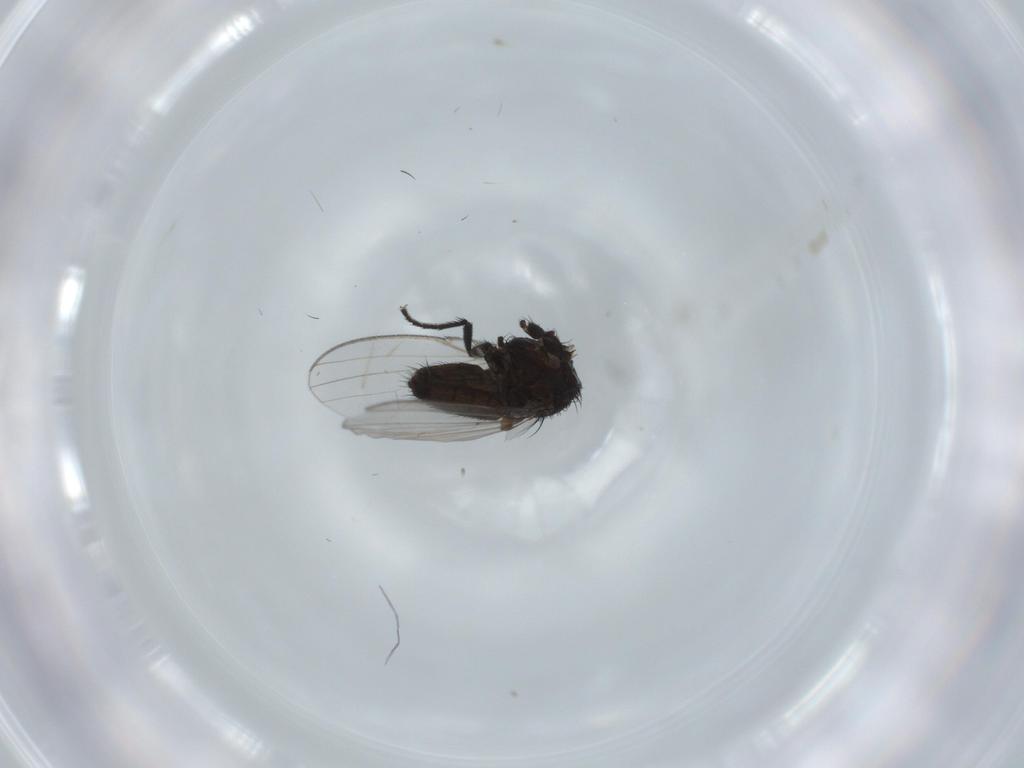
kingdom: Animalia
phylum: Arthropoda
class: Insecta
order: Diptera
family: Milichiidae
